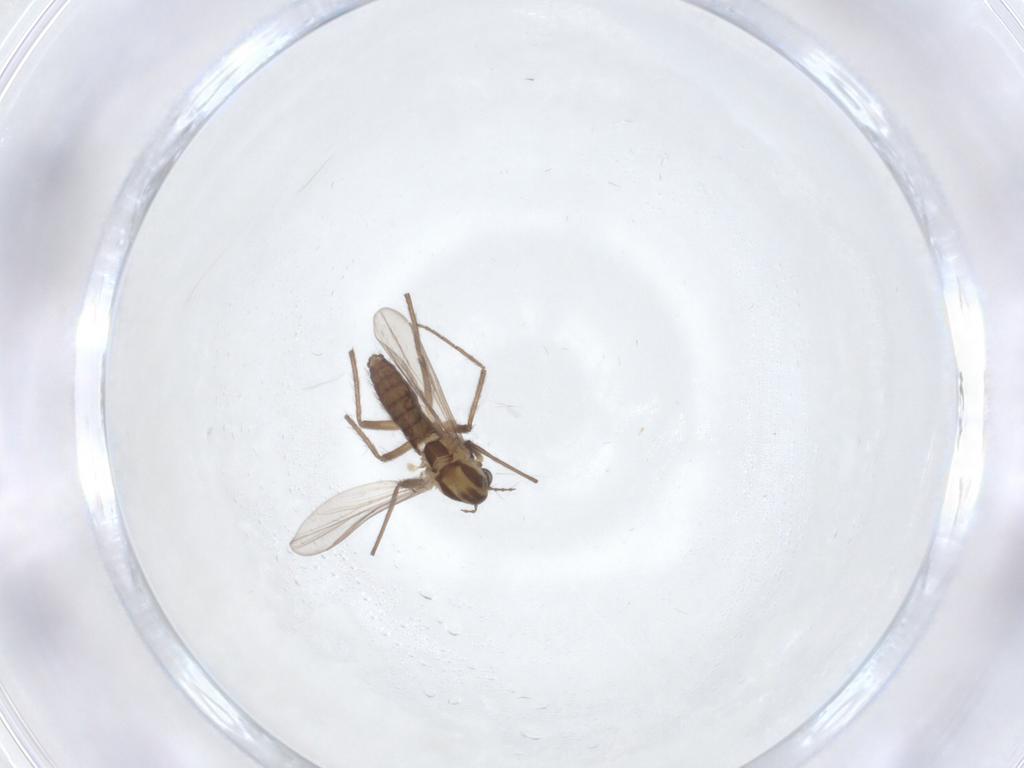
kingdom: Animalia
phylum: Arthropoda
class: Insecta
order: Diptera
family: Chironomidae
